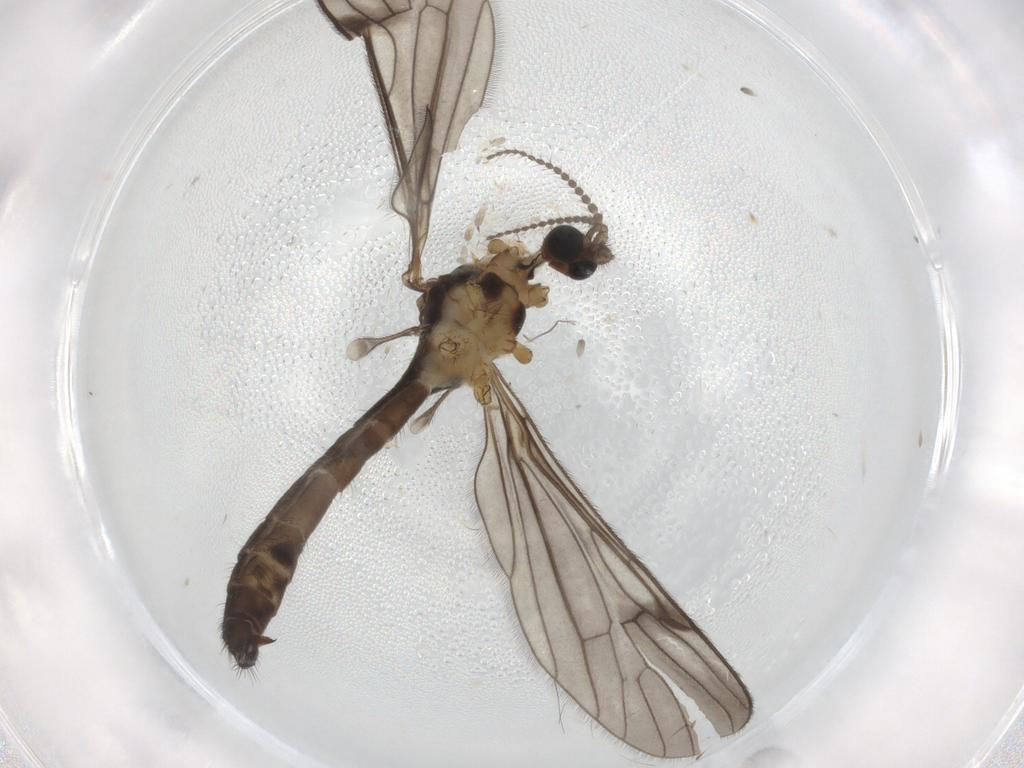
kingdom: Animalia
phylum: Arthropoda
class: Insecta
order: Diptera
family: Limoniidae
